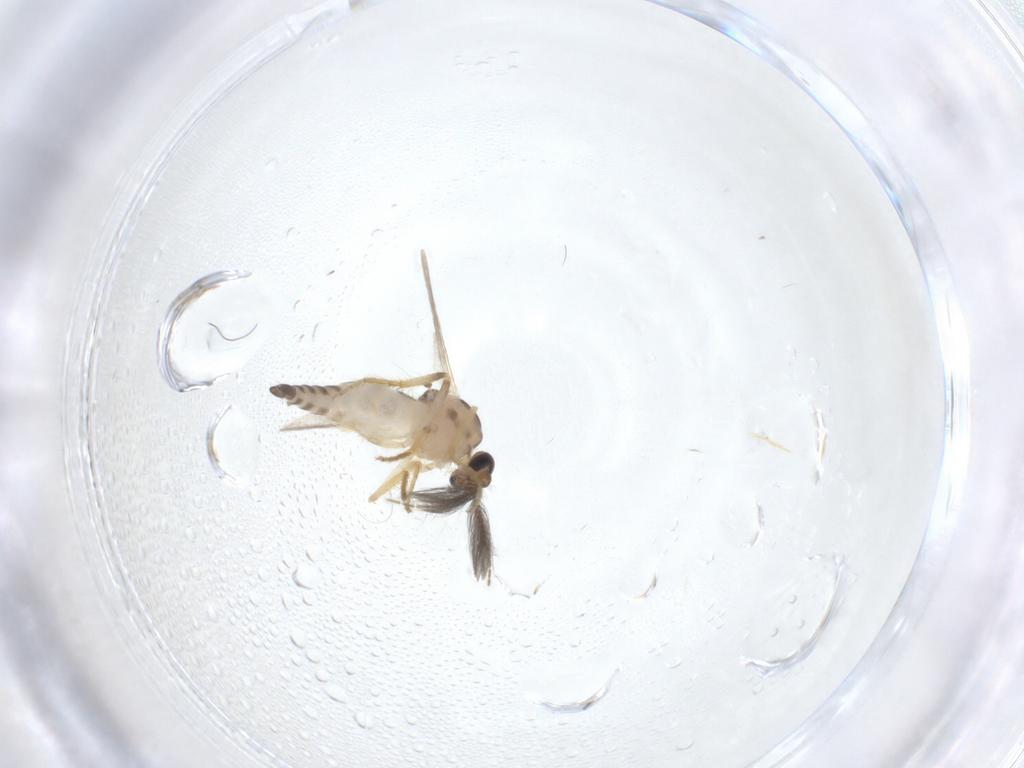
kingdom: Animalia
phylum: Arthropoda
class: Insecta
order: Diptera
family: Ceratopogonidae
